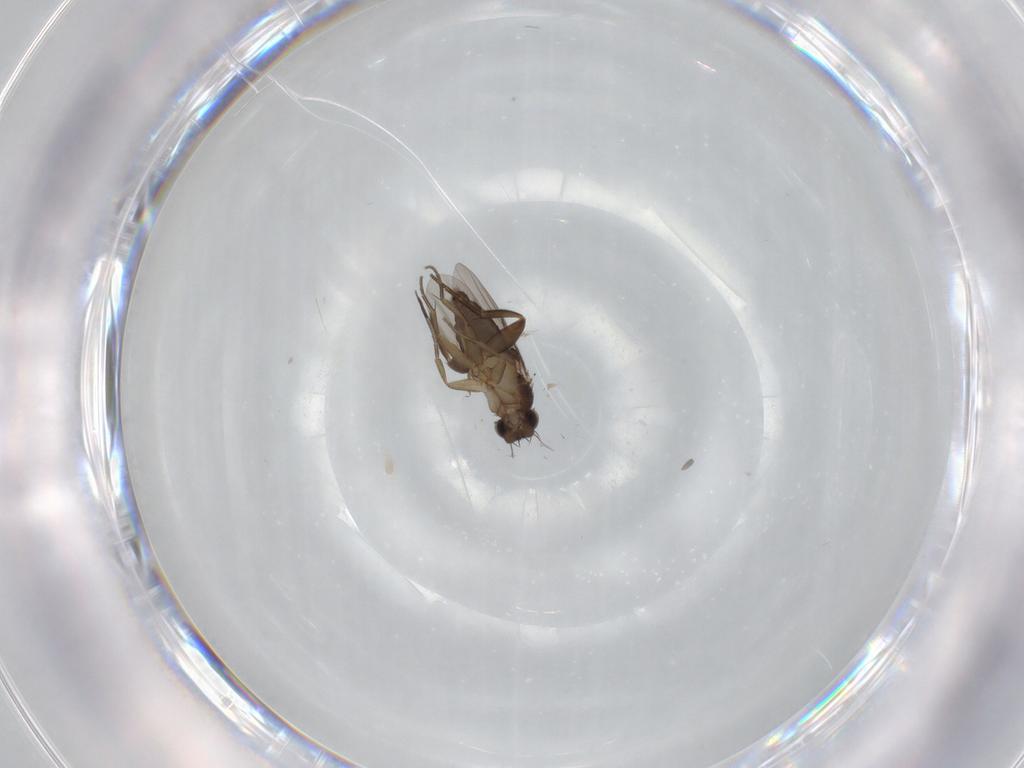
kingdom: Animalia
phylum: Arthropoda
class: Insecta
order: Diptera
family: Phoridae
